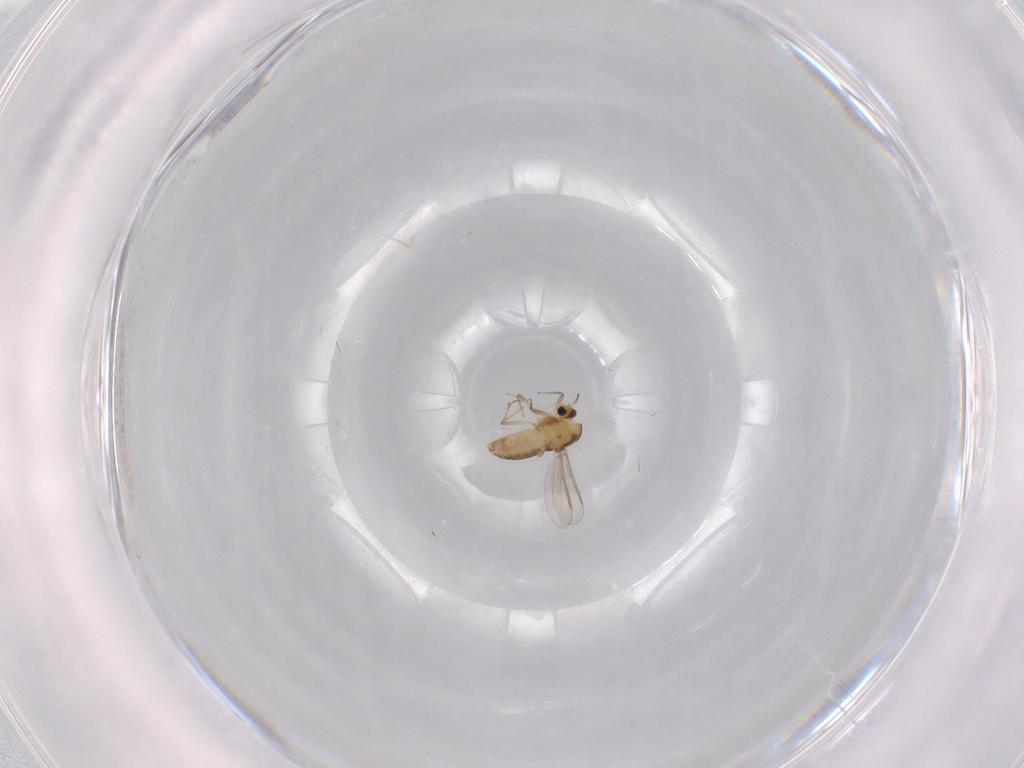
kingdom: Animalia
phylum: Arthropoda
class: Insecta
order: Diptera
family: Chironomidae
